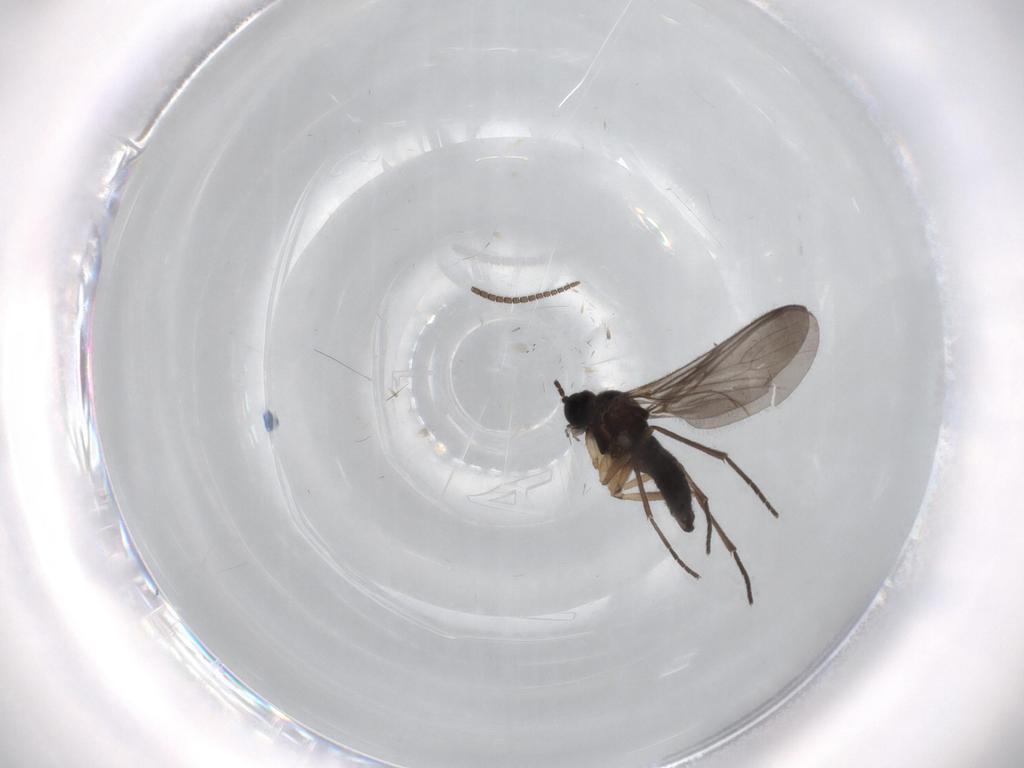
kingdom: Animalia
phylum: Arthropoda
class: Insecta
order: Diptera
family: Sciaridae
